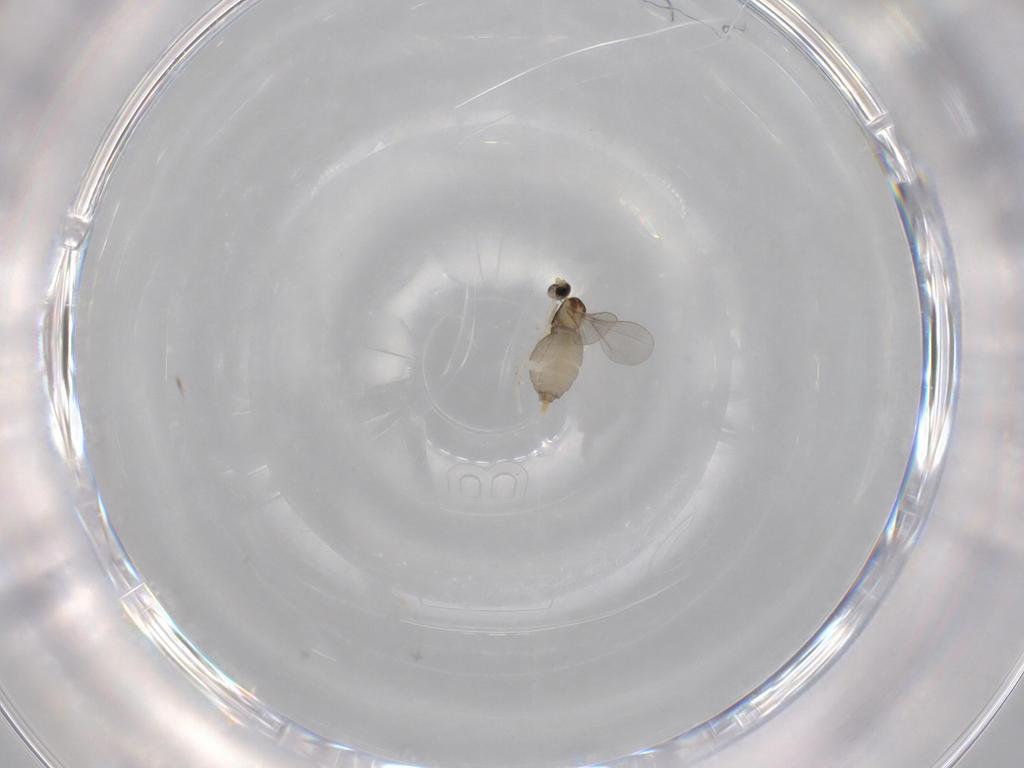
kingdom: Animalia
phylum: Arthropoda
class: Insecta
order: Diptera
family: Cecidomyiidae
